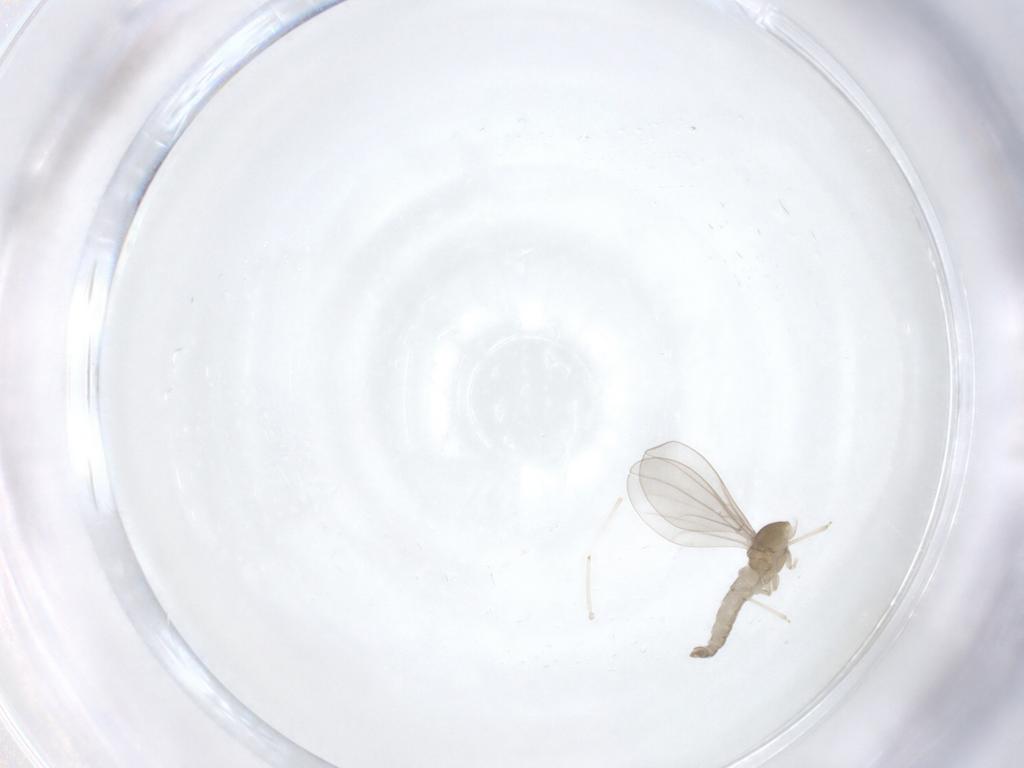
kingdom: Animalia
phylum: Arthropoda
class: Insecta
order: Diptera
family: Cecidomyiidae
